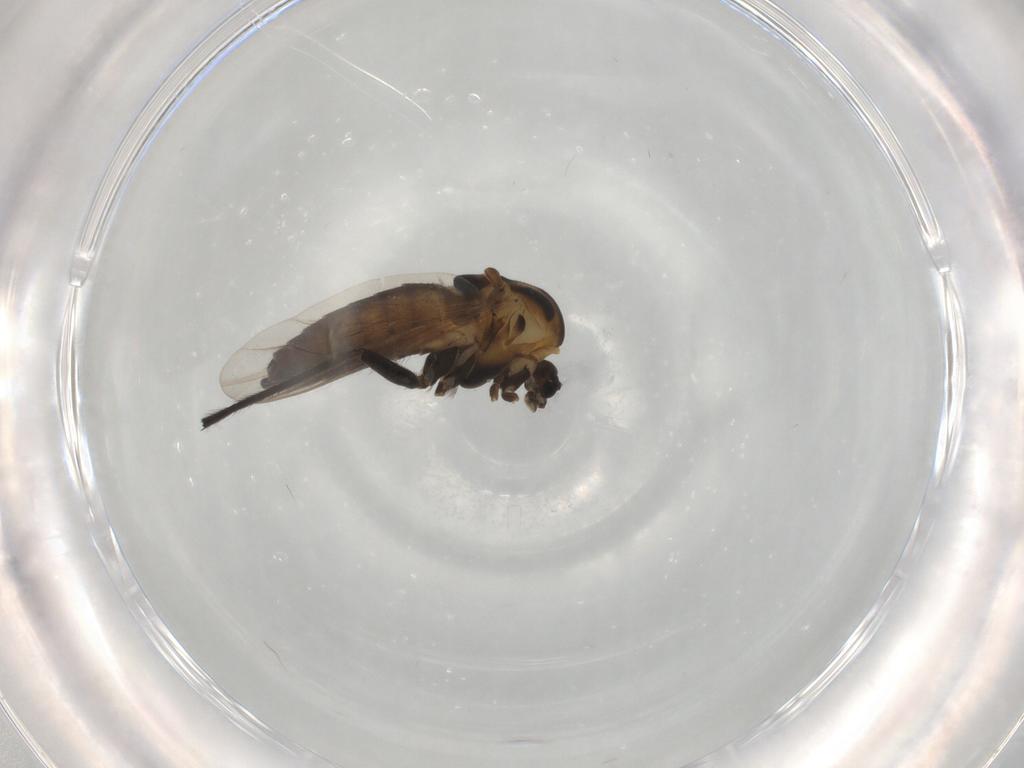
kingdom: Animalia
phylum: Arthropoda
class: Insecta
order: Diptera
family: Chironomidae
